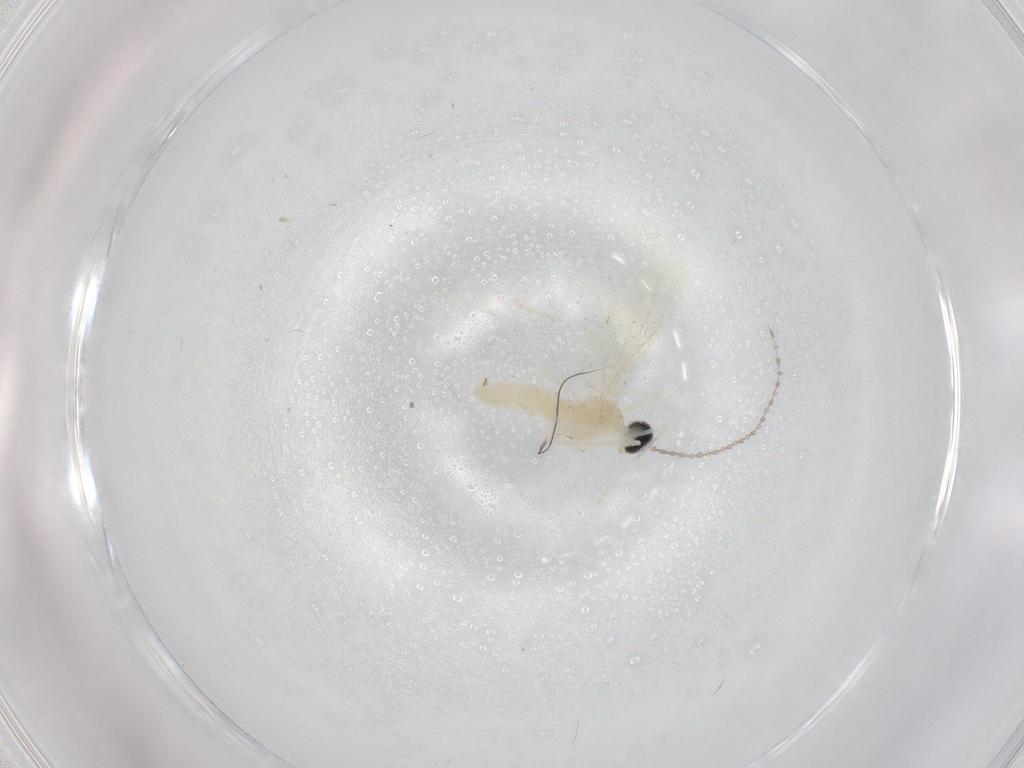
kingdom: Animalia
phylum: Arthropoda
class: Insecta
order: Diptera
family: Cecidomyiidae
